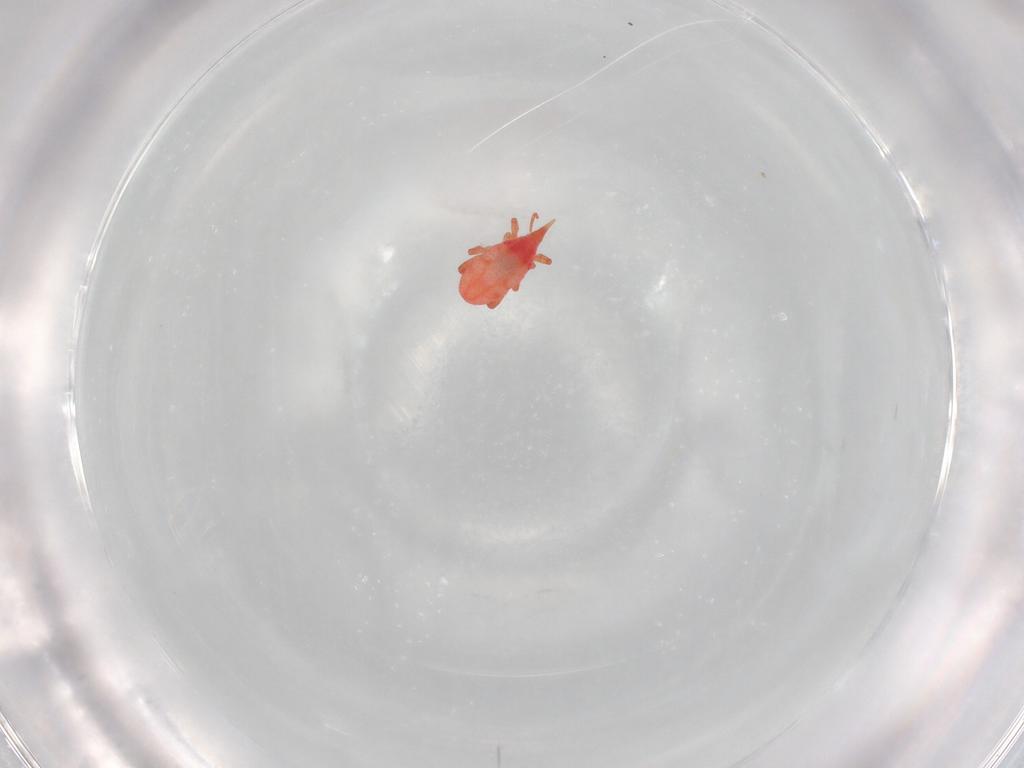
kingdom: Animalia
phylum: Arthropoda
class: Arachnida
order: Trombidiformes
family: Bdellidae
